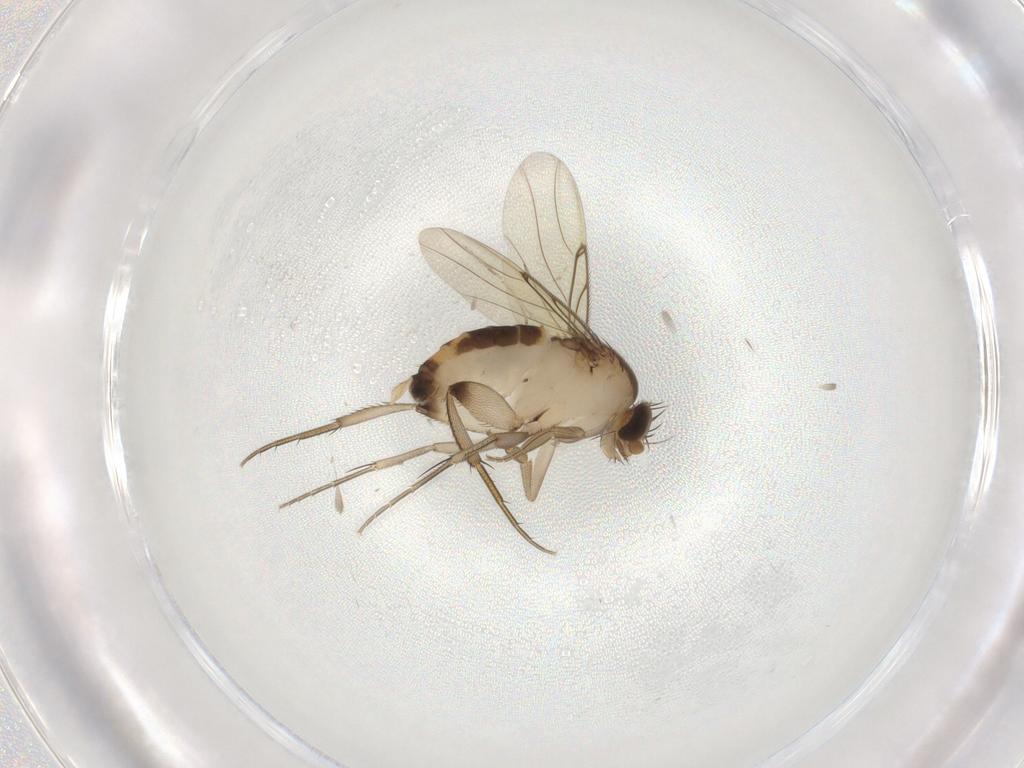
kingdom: Animalia
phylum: Arthropoda
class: Insecta
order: Diptera
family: Phoridae
